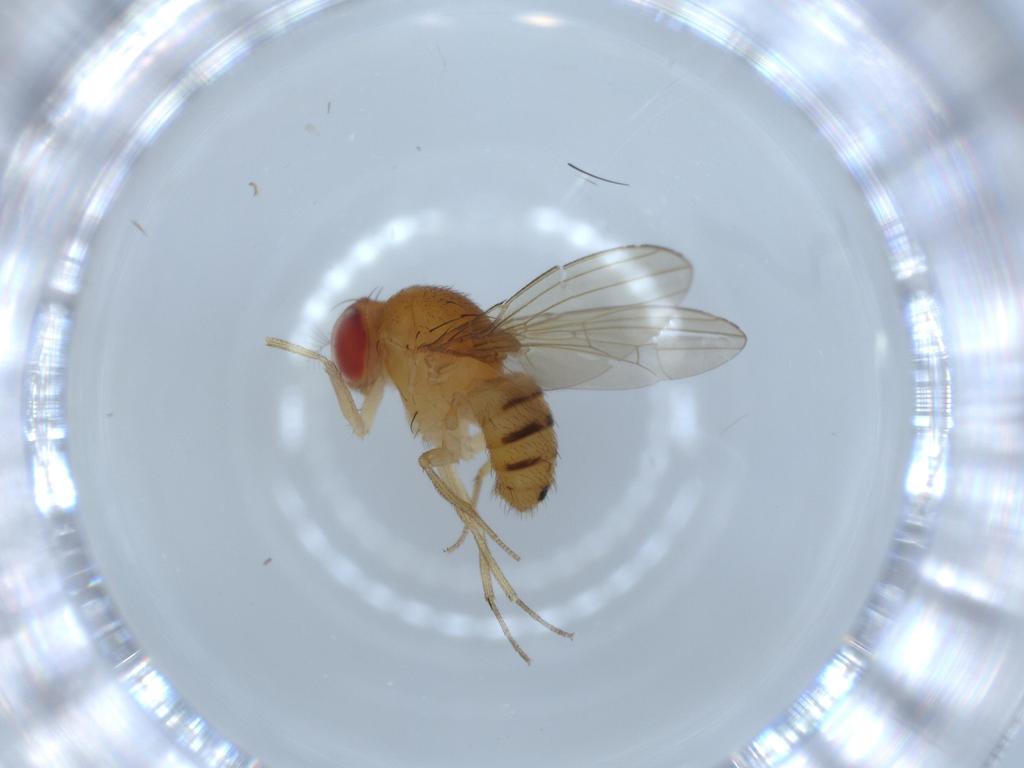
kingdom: Animalia
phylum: Arthropoda
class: Insecta
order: Diptera
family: Drosophilidae
